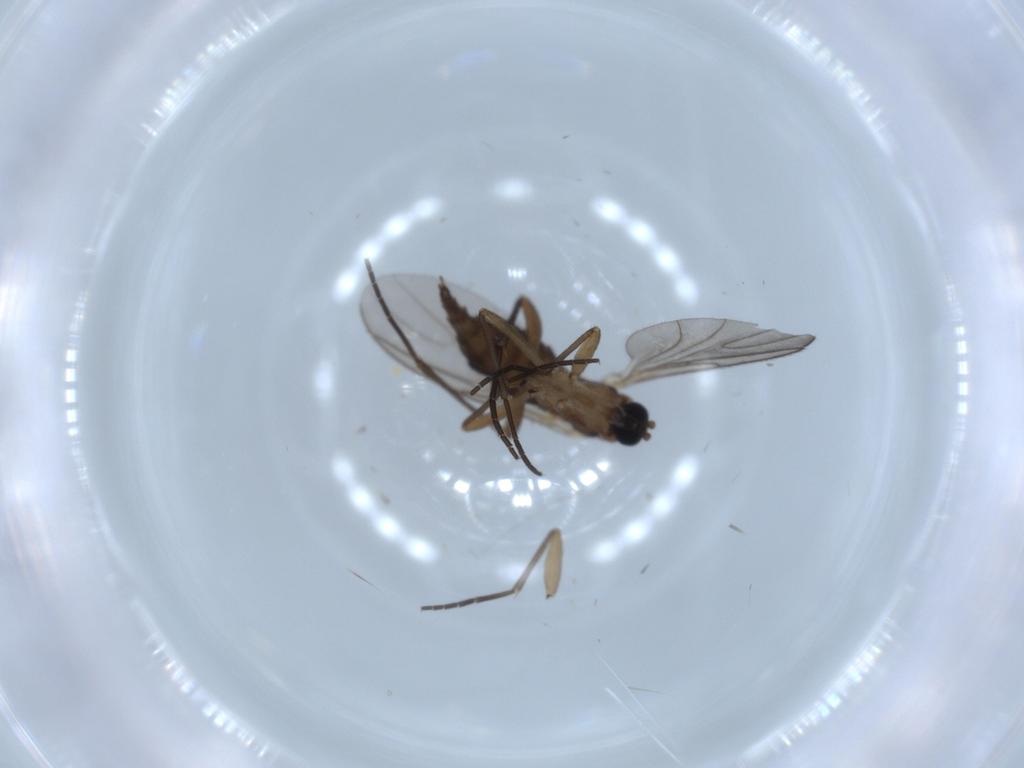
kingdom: Animalia
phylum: Arthropoda
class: Insecta
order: Diptera
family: Sciaridae
